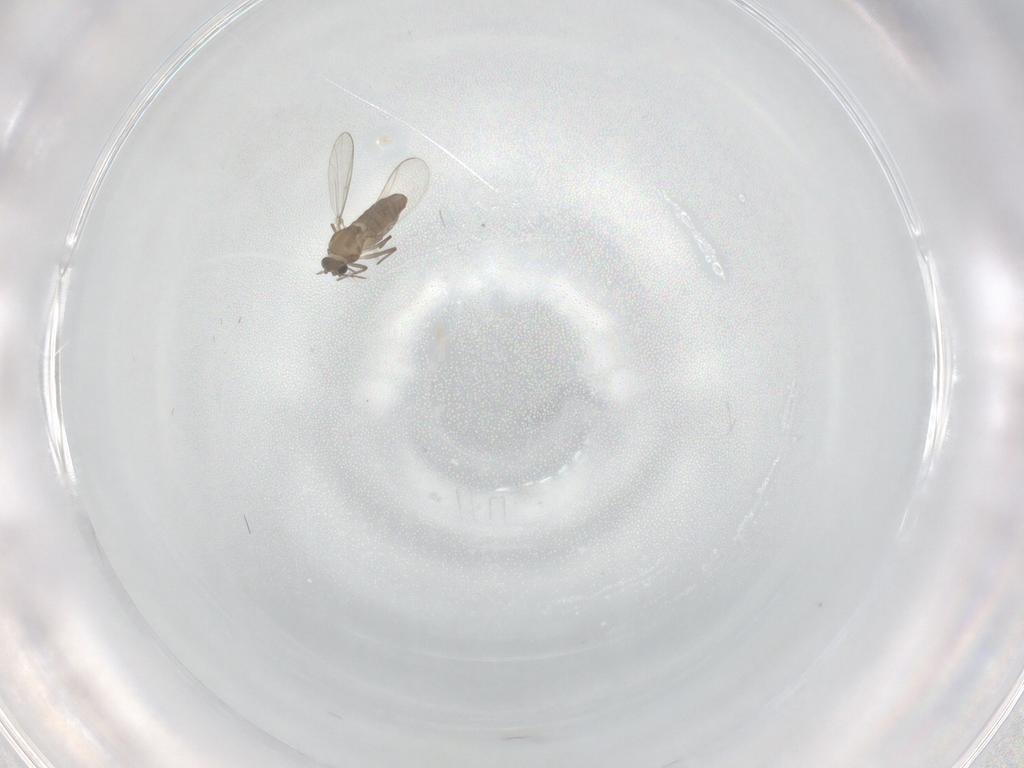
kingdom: Animalia
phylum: Arthropoda
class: Insecta
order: Diptera
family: Chironomidae
